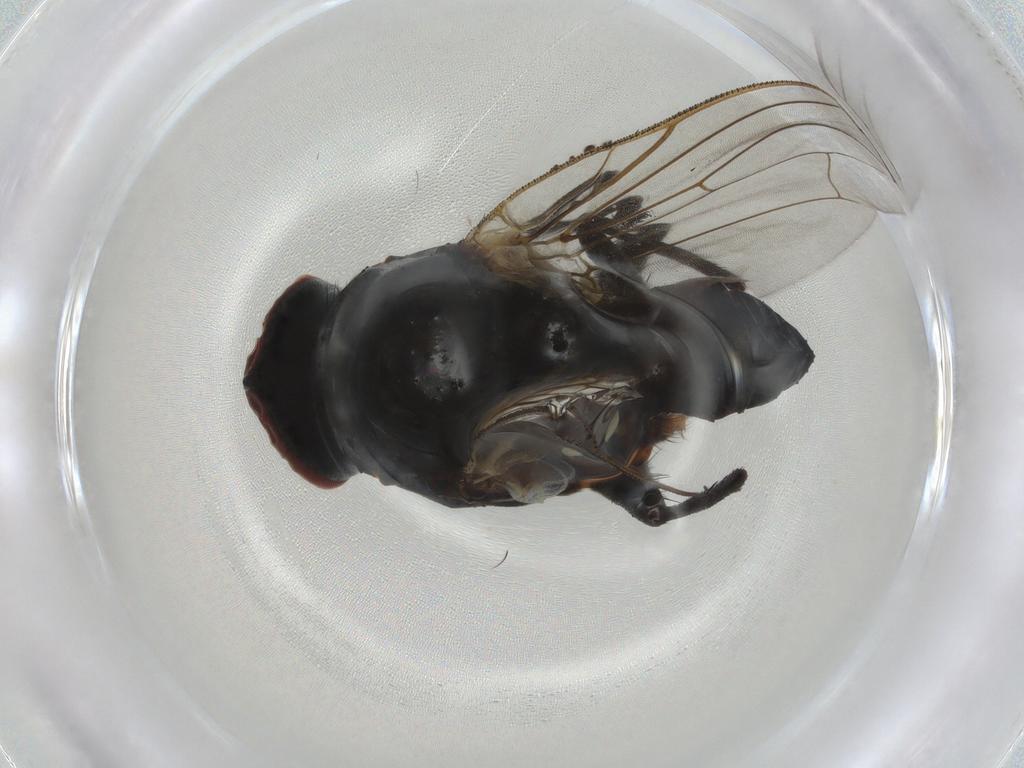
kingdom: Animalia
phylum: Arthropoda
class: Insecta
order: Diptera
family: Anthomyiidae
